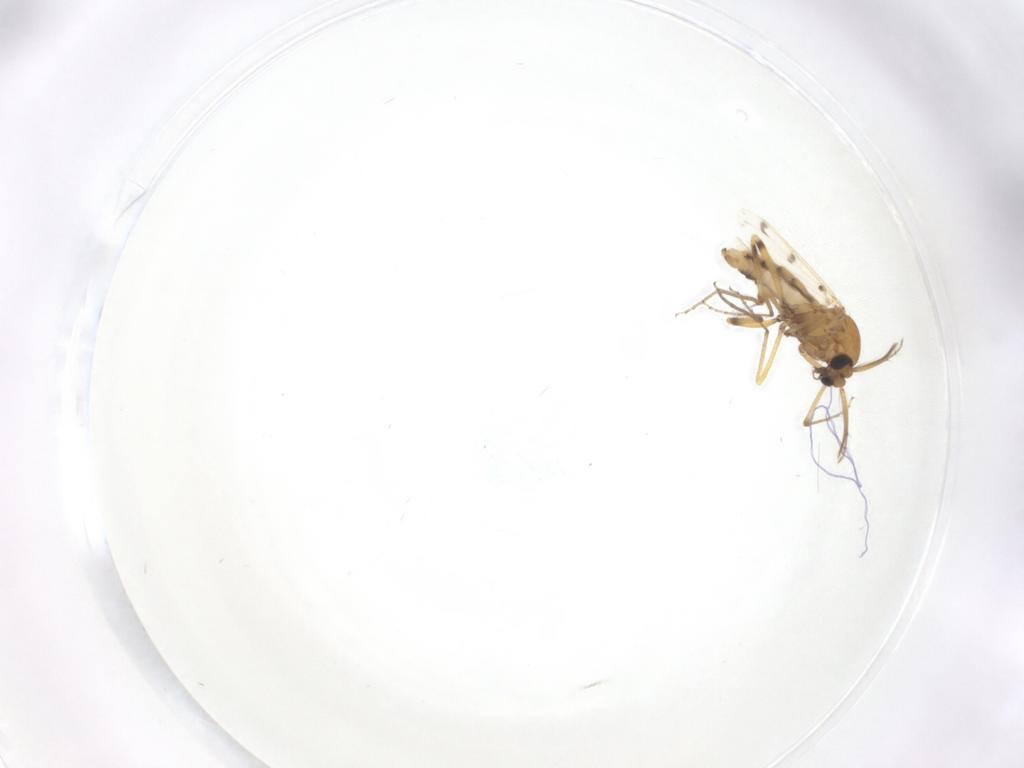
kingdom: Animalia
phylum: Arthropoda
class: Insecta
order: Diptera
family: Ceratopogonidae
